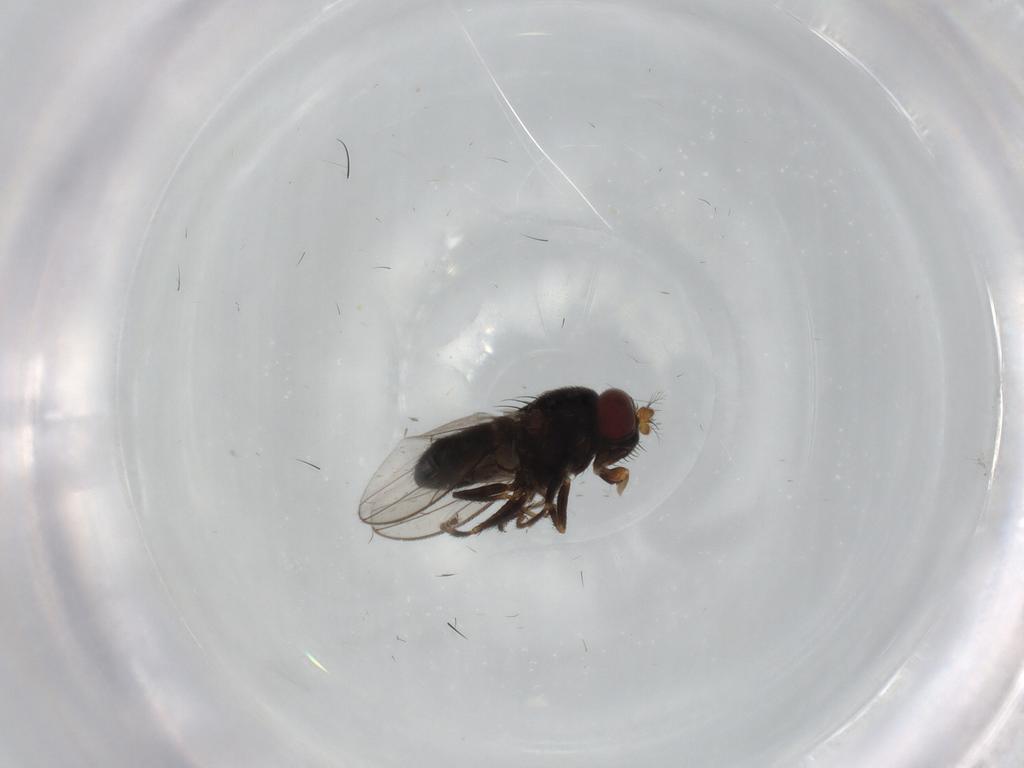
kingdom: Animalia
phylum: Arthropoda
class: Insecta
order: Diptera
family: Ephydridae
